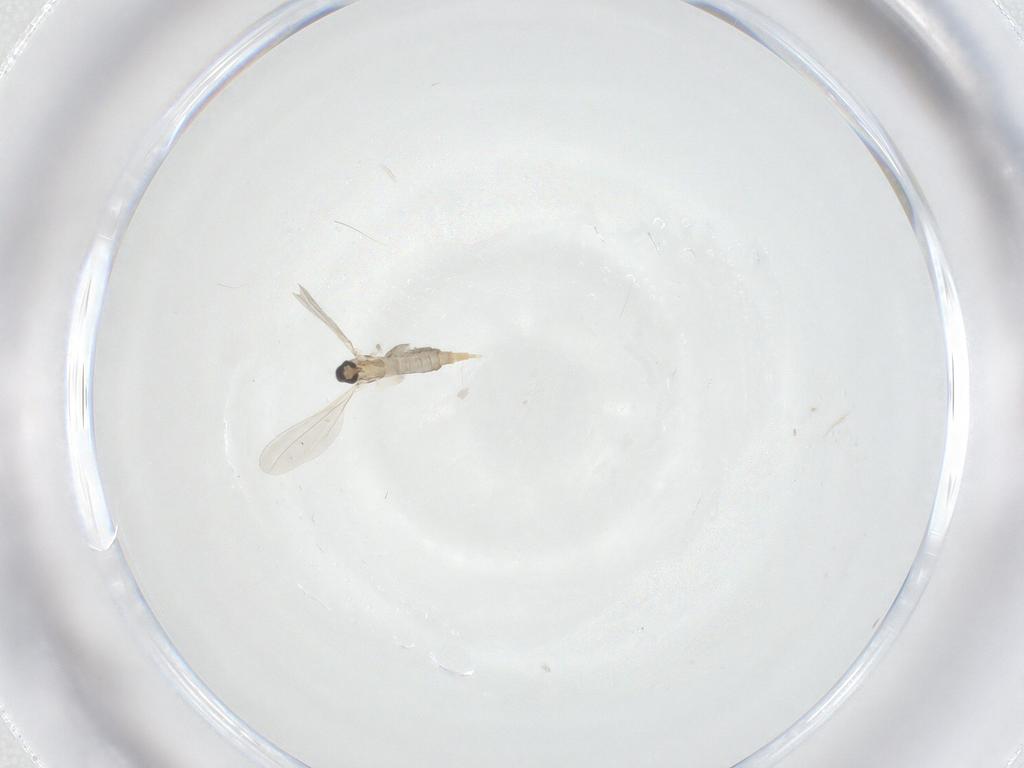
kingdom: Animalia
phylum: Arthropoda
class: Insecta
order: Diptera
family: Cecidomyiidae
